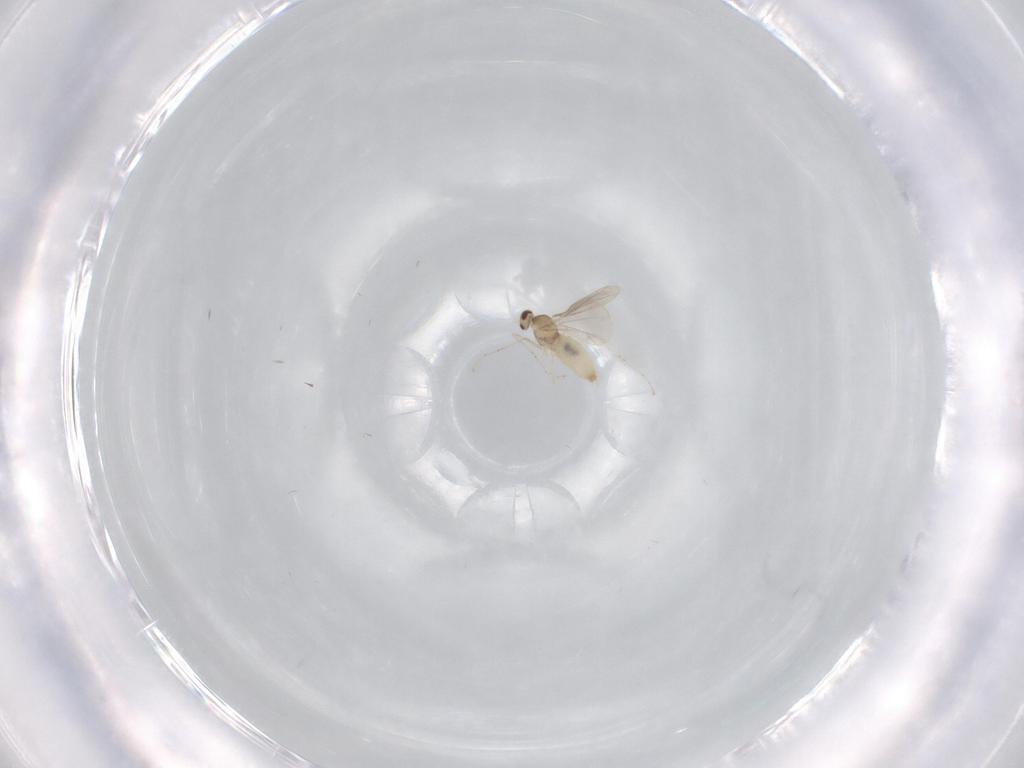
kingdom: Animalia
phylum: Arthropoda
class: Insecta
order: Diptera
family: Cecidomyiidae
